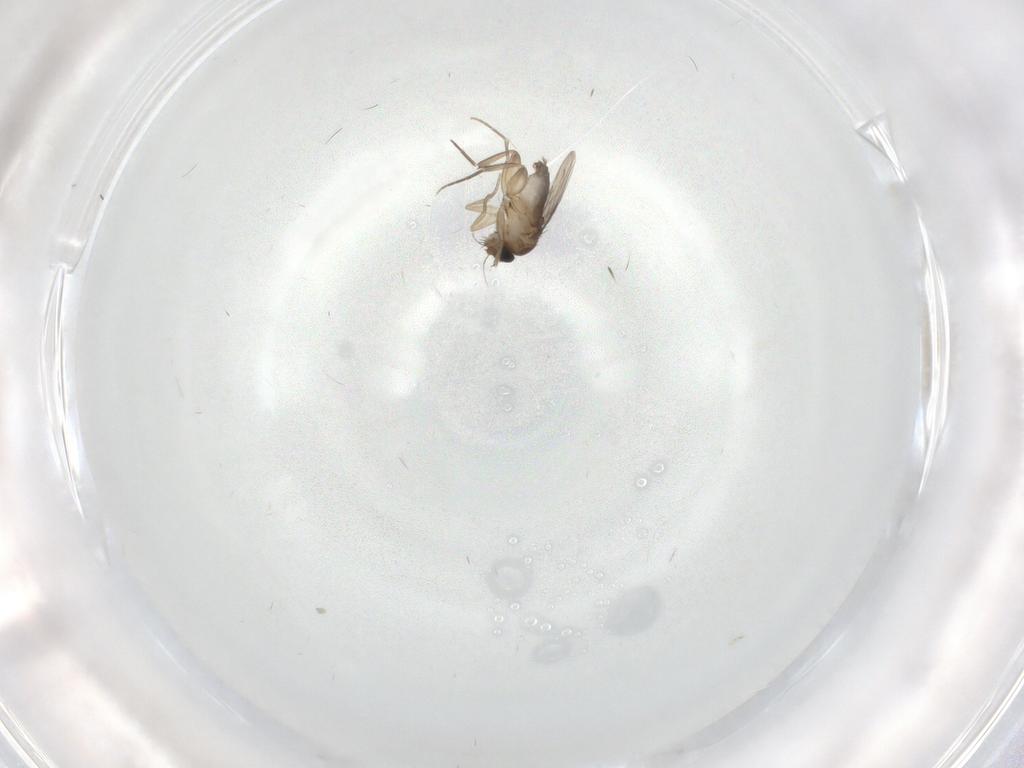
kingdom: Animalia
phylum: Arthropoda
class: Insecta
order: Diptera
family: Phoridae
